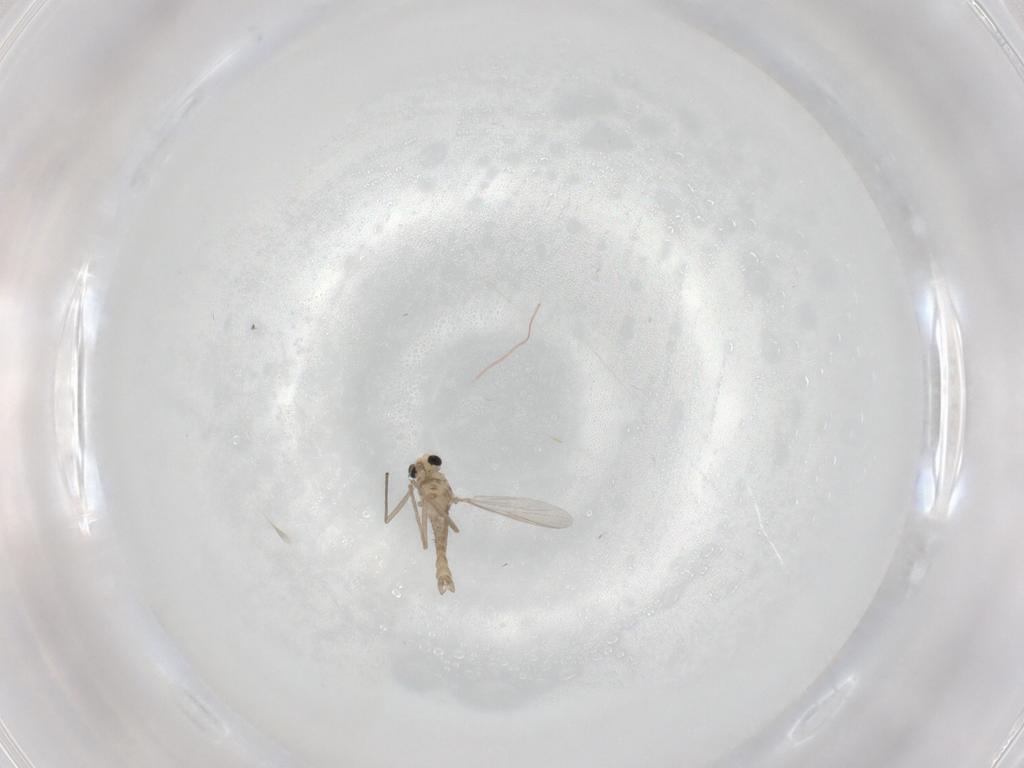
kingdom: Animalia
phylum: Arthropoda
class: Insecta
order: Diptera
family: Chironomidae
